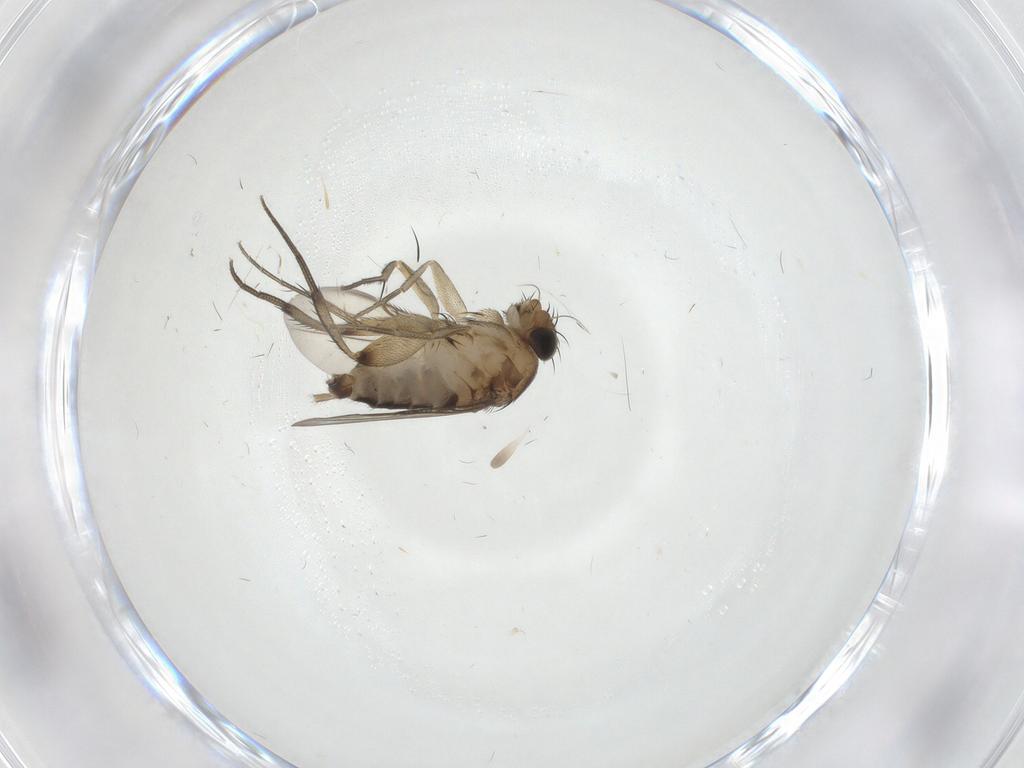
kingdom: Animalia
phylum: Arthropoda
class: Insecta
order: Diptera
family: Phoridae
